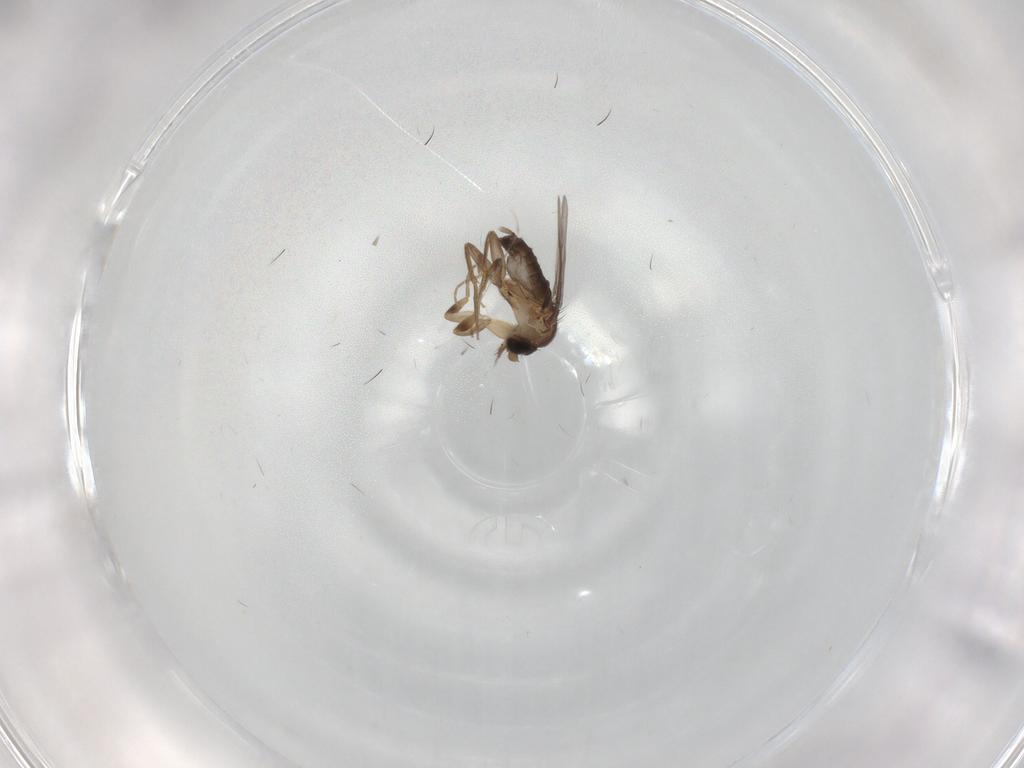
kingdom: Animalia
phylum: Arthropoda
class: Insecta
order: Diptera
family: Phoridae
